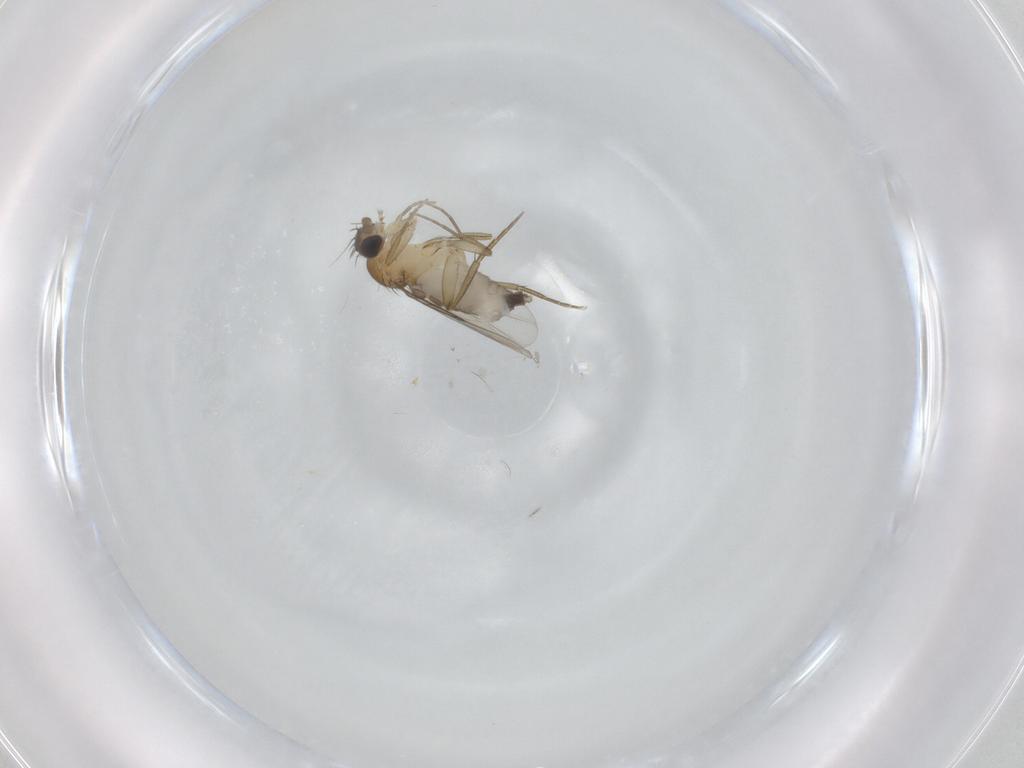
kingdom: Animalia
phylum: Arthropoda
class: Insecta
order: Diptera
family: Phoridae
